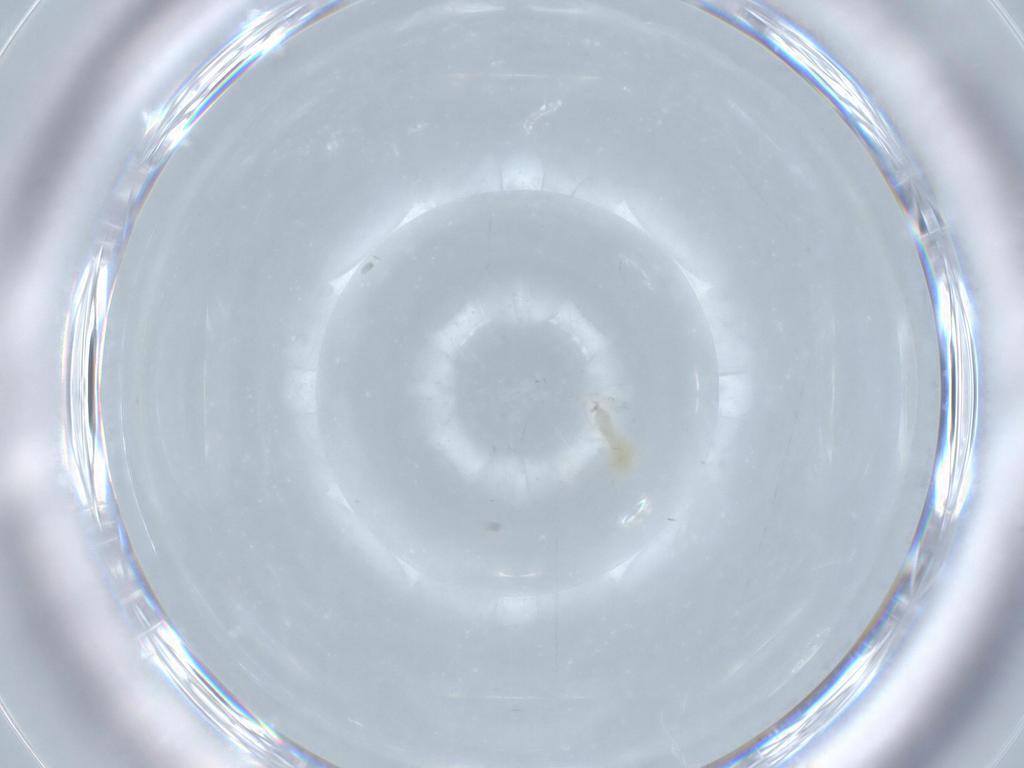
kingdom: Animalia
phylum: Arthropoda
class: Insecta
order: Diptera
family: Cecidomyiidae
